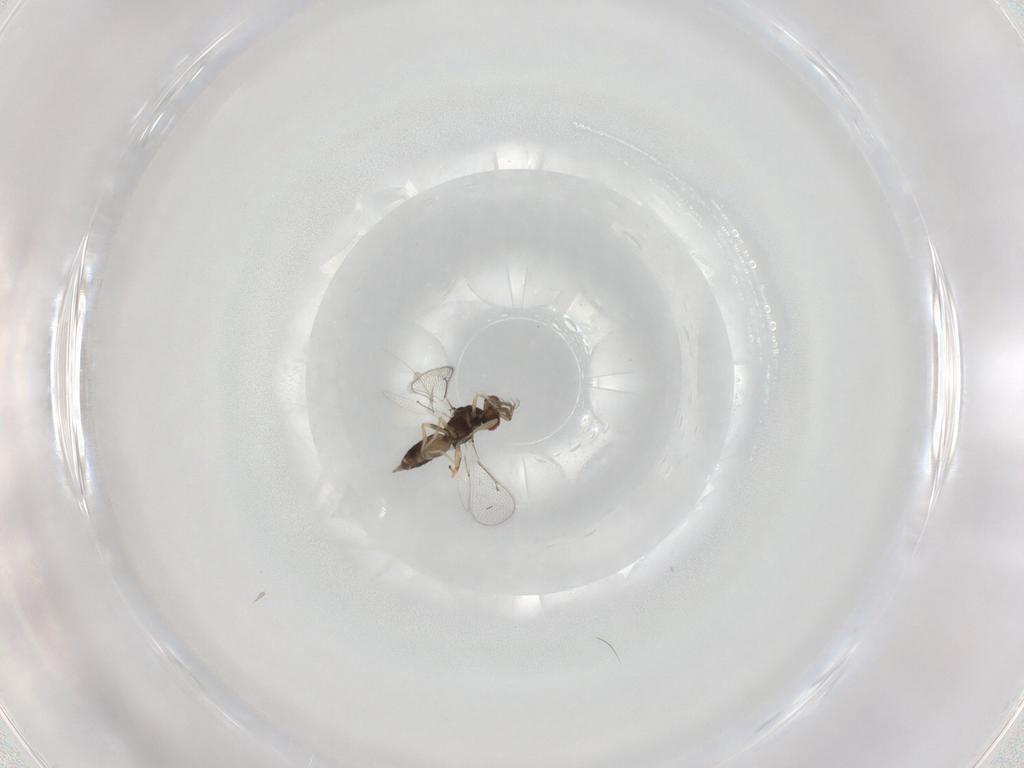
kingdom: Animalia
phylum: Arthropoda
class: Insecta
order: Hymenoptera
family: Eulophidae
